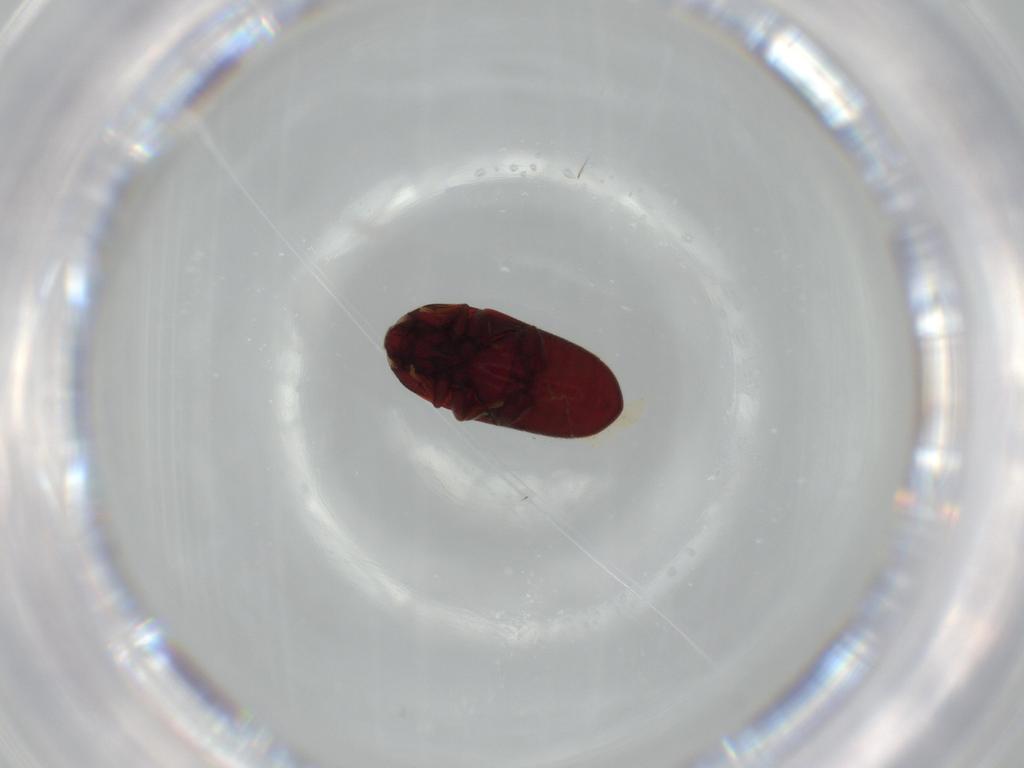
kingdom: Animalia
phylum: Arthropoda
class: Insecta
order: Coleoptera
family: Throscidae
